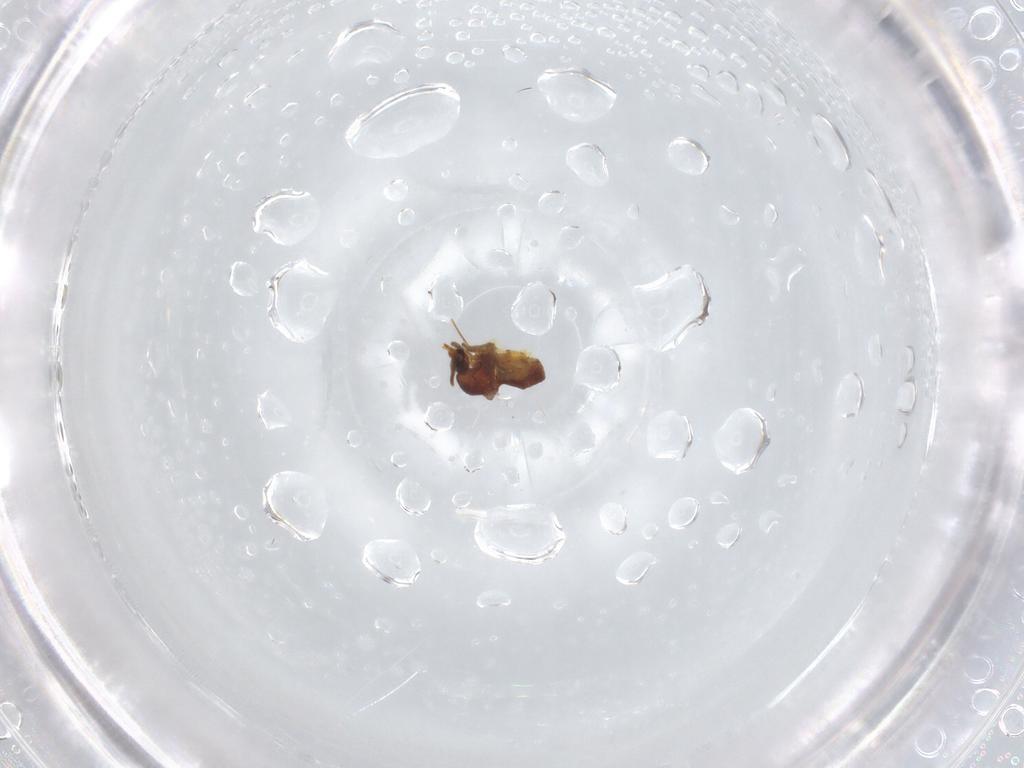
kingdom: Animalia
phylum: Arthropoda
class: Insecta
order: Diptera
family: Ceratopogonidae
